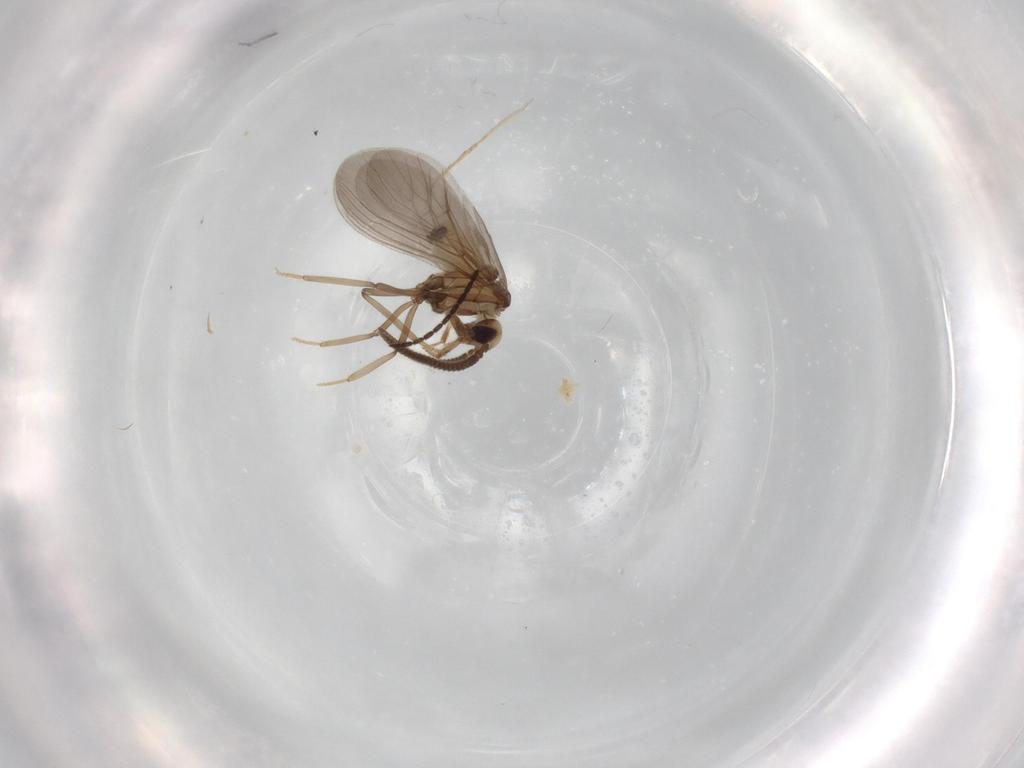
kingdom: Animalia
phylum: Arthropoda
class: Insecta
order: Neuroptera
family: Coniopterygidae
